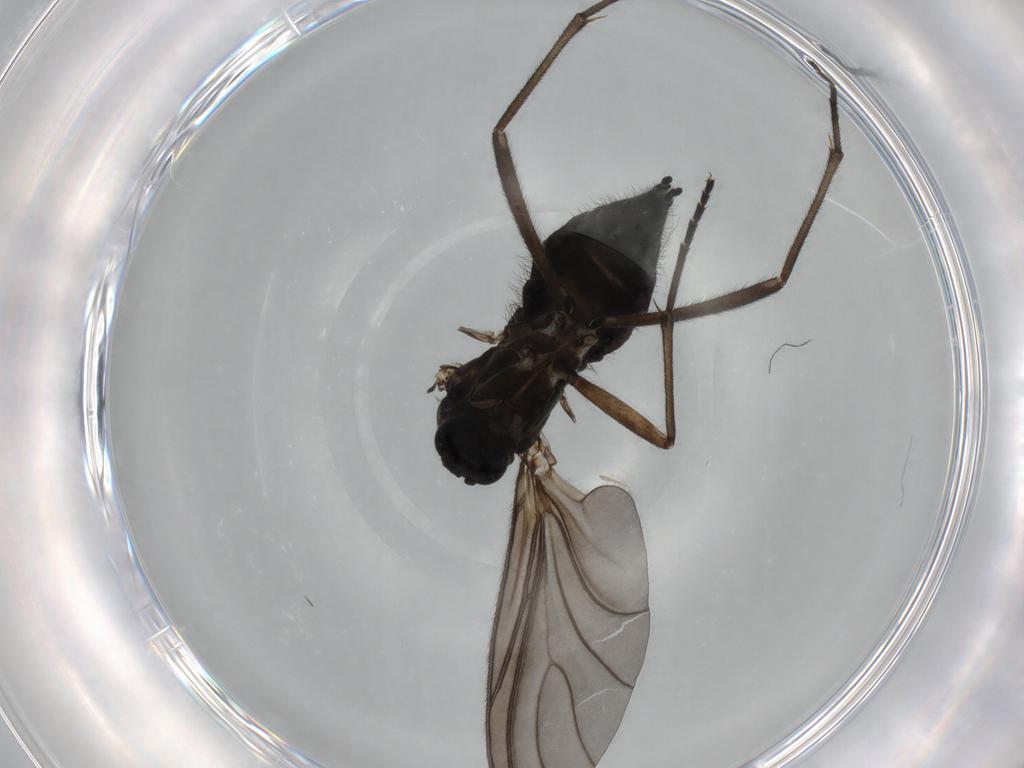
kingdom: Animalia
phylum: Arthropoda
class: Insecta
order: Diptera
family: Sciaridae
